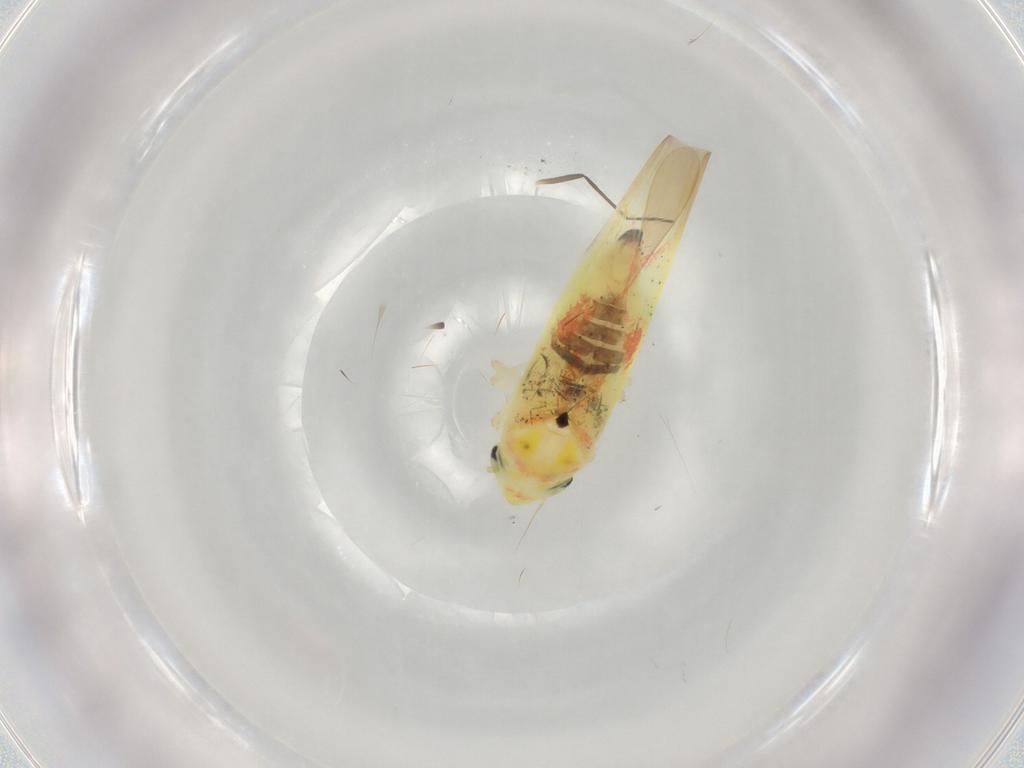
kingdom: Animalia
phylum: Arthropoda
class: Insecta
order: Hemiptera
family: Cicadellidae
